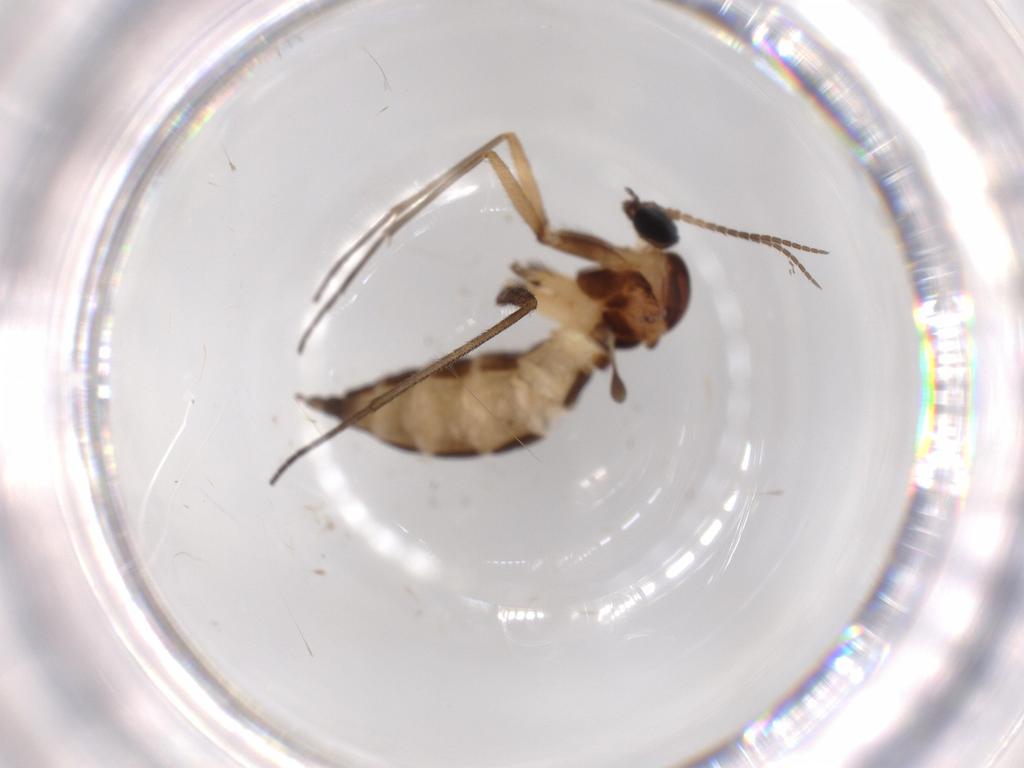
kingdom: Animalia
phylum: Arthropoda
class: Insecta
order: Diptera
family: Sciaridae
